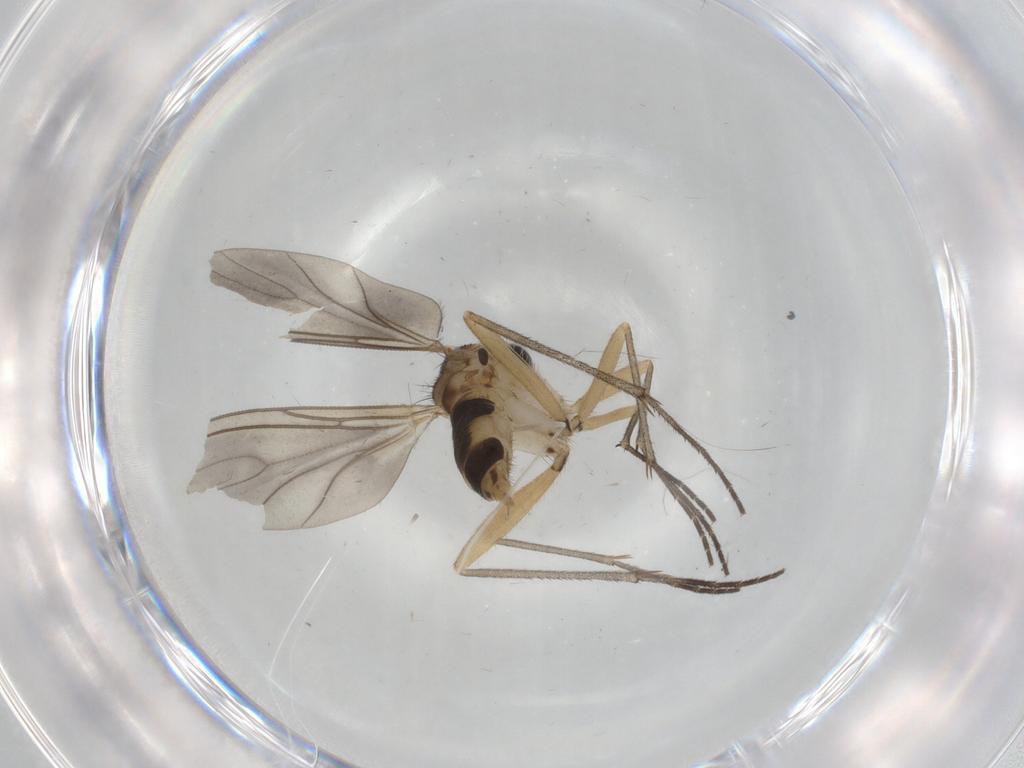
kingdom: Animalia
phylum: Arthropoda
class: Insecta
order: Diptera
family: Sciaridae
